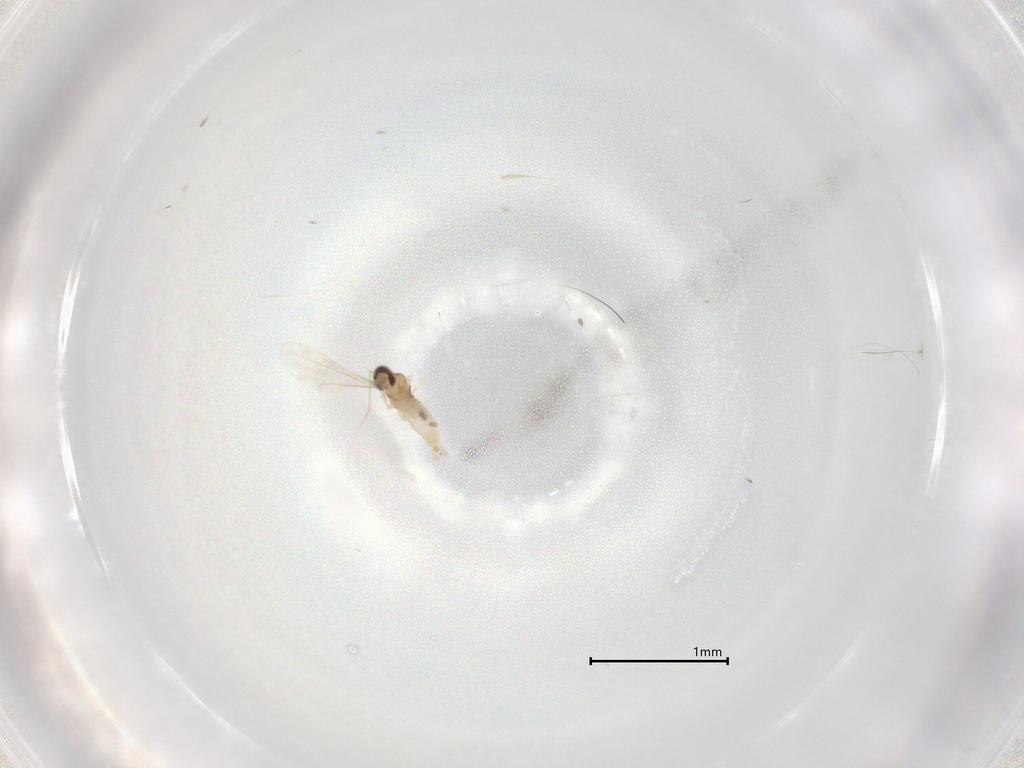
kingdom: Animalia
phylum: Arthropoda
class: Insecta
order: Diptera
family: Cecidomyiidae
